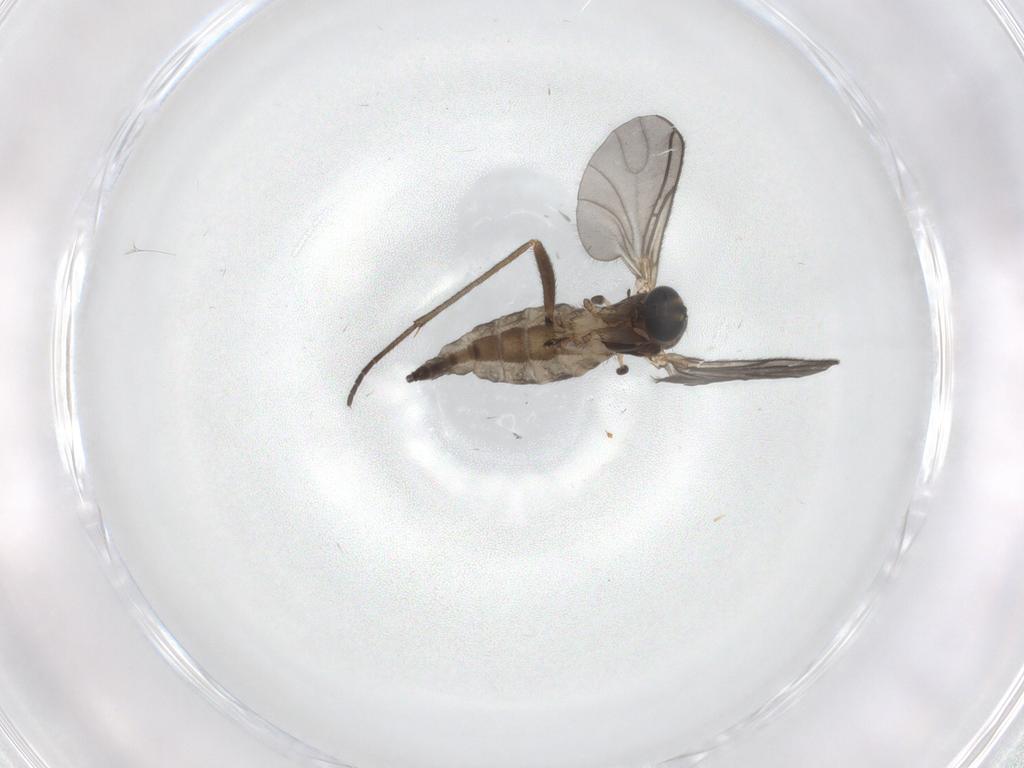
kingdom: Animalia
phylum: Arthropoda
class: Insecta
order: Diptera
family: Sciaridae
